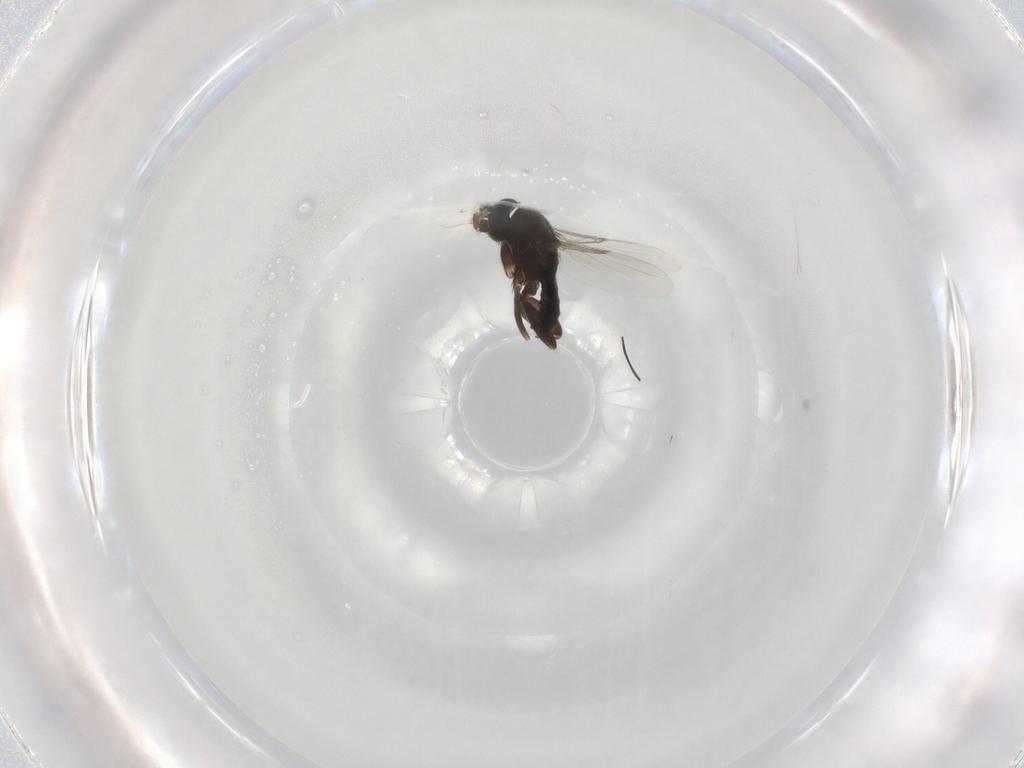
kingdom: Animalia
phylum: Arthropoda
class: Insecta
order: Diptera
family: Phoridae
